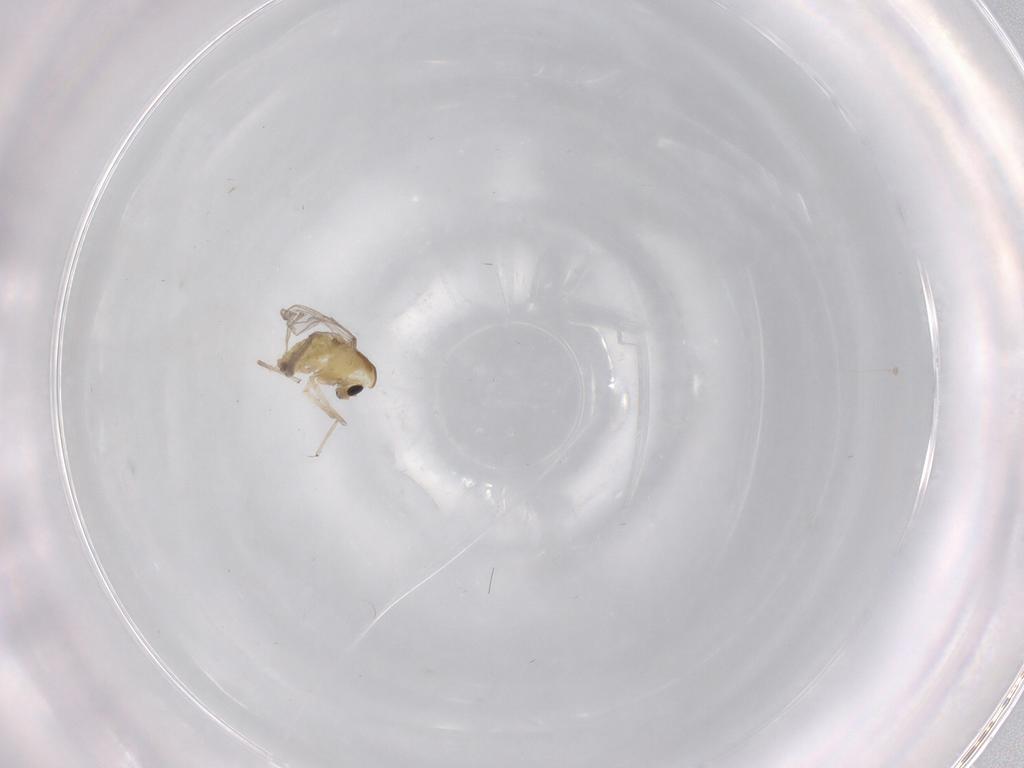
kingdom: Animalia
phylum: Arthropoda
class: Insecta
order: Diptera
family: Chironomidae
